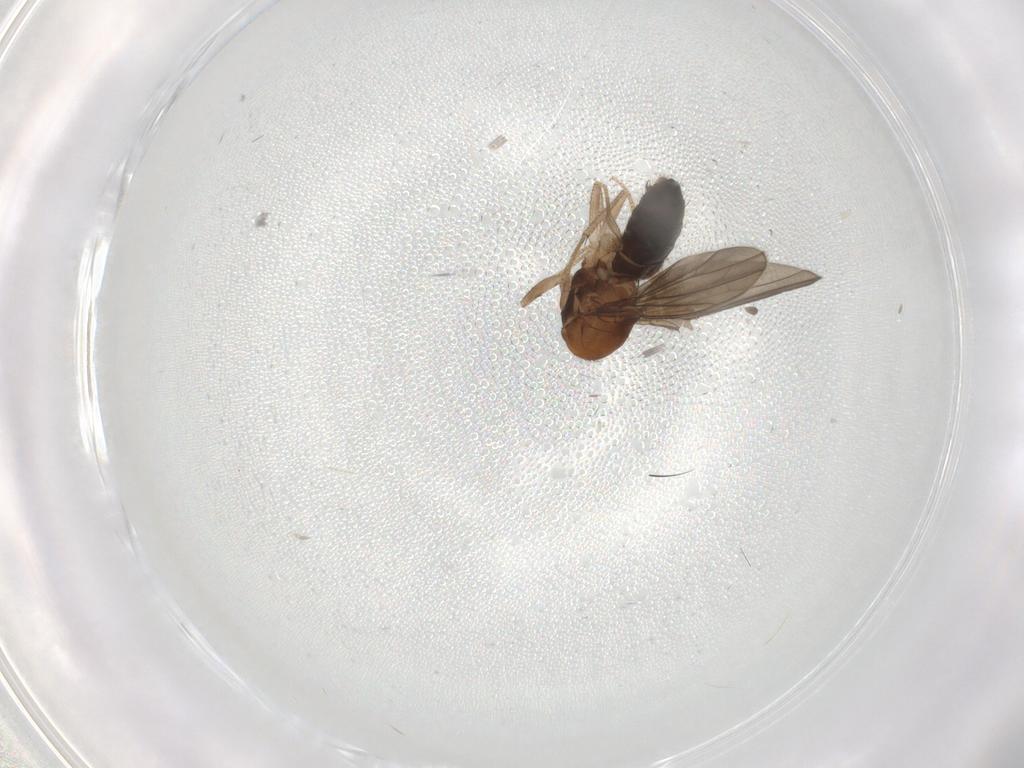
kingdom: Animalia
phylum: Arthropoda
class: Insecta
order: Diptera
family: Drosophilidae
